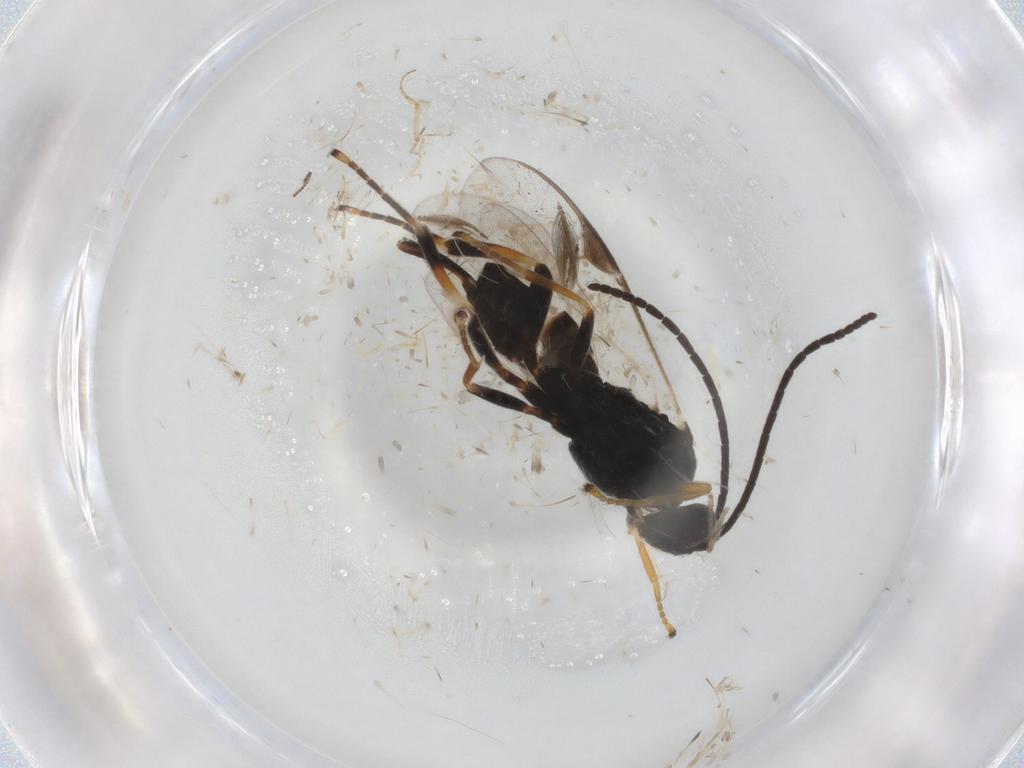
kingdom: Animalia
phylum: Arthropoda
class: Insecta
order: Hymenoptera
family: Braconidae
